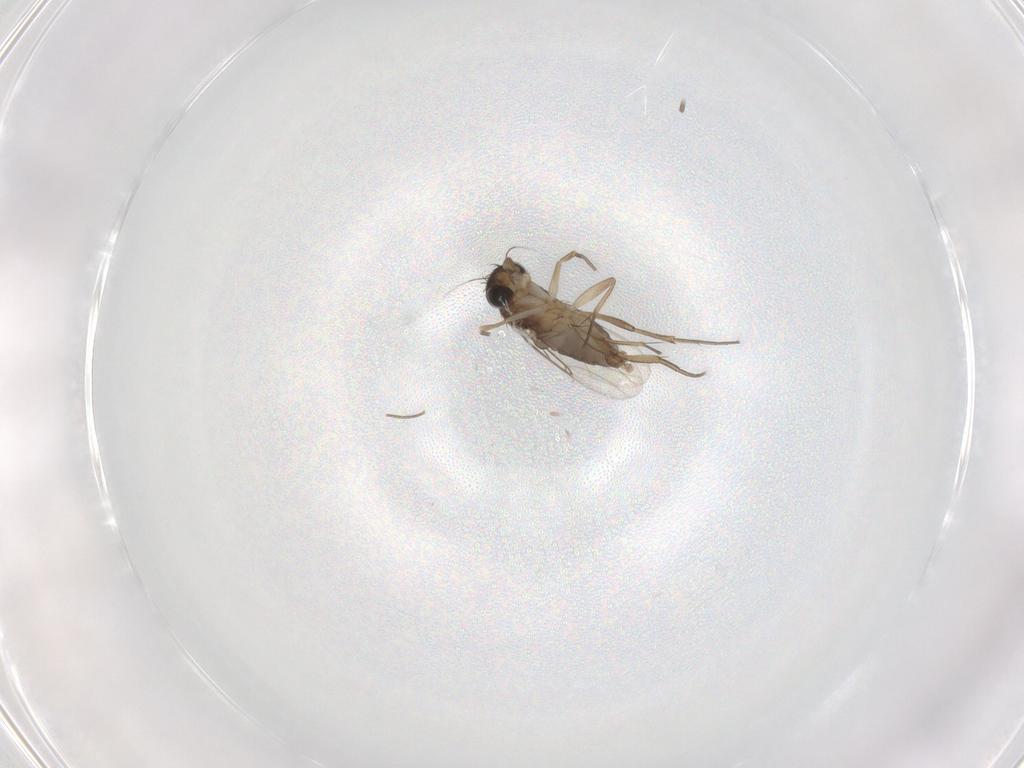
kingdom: Animalia
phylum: Arthropoda
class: Insecta
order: Diptera
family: Phoridae
